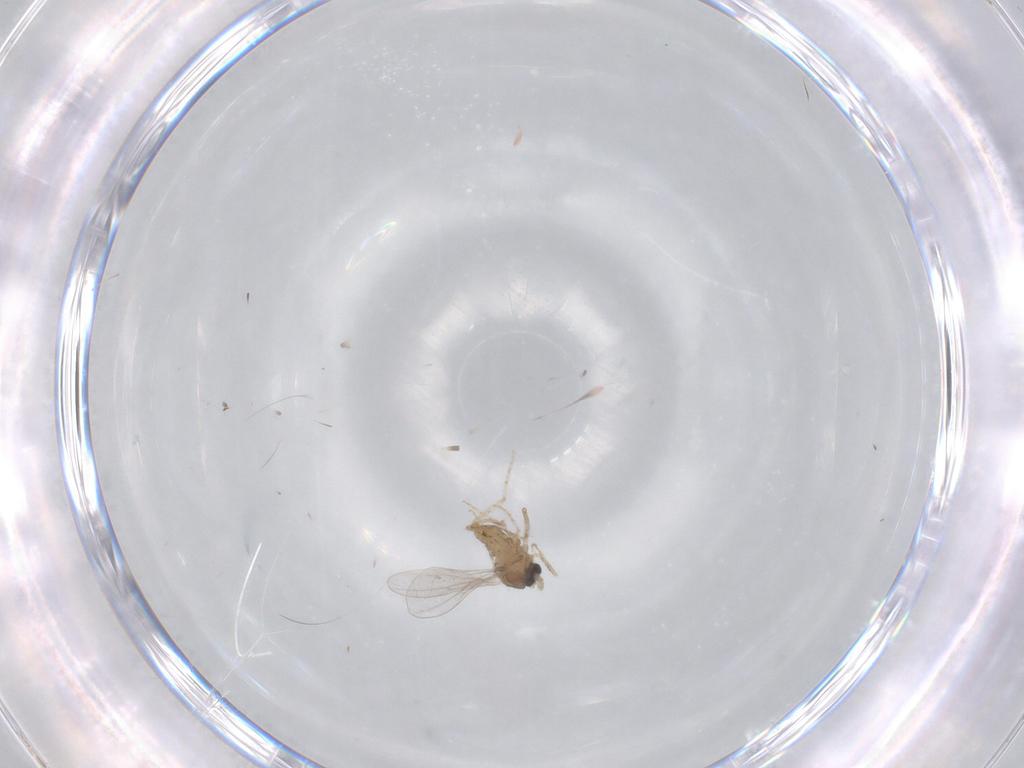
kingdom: Animalia
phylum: Arthropoda
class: Insecta
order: Diptera
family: Cecidomyiidae
